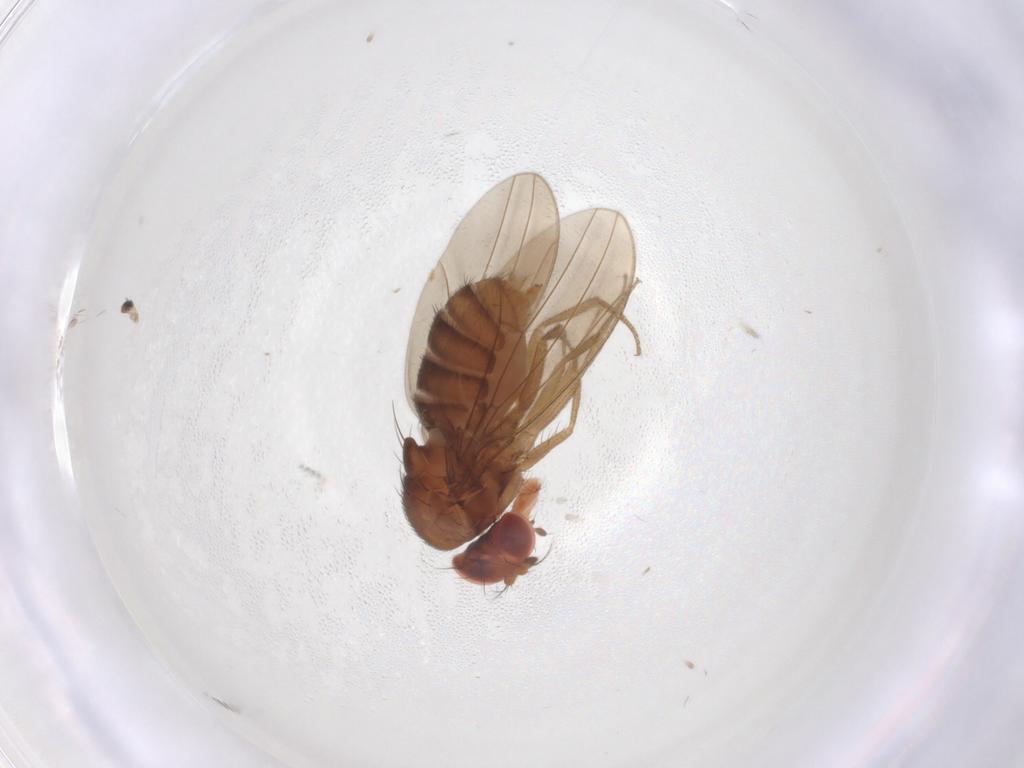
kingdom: Animalia
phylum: Arthropoda
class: Insecta
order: Diptera
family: Drosophilidae
